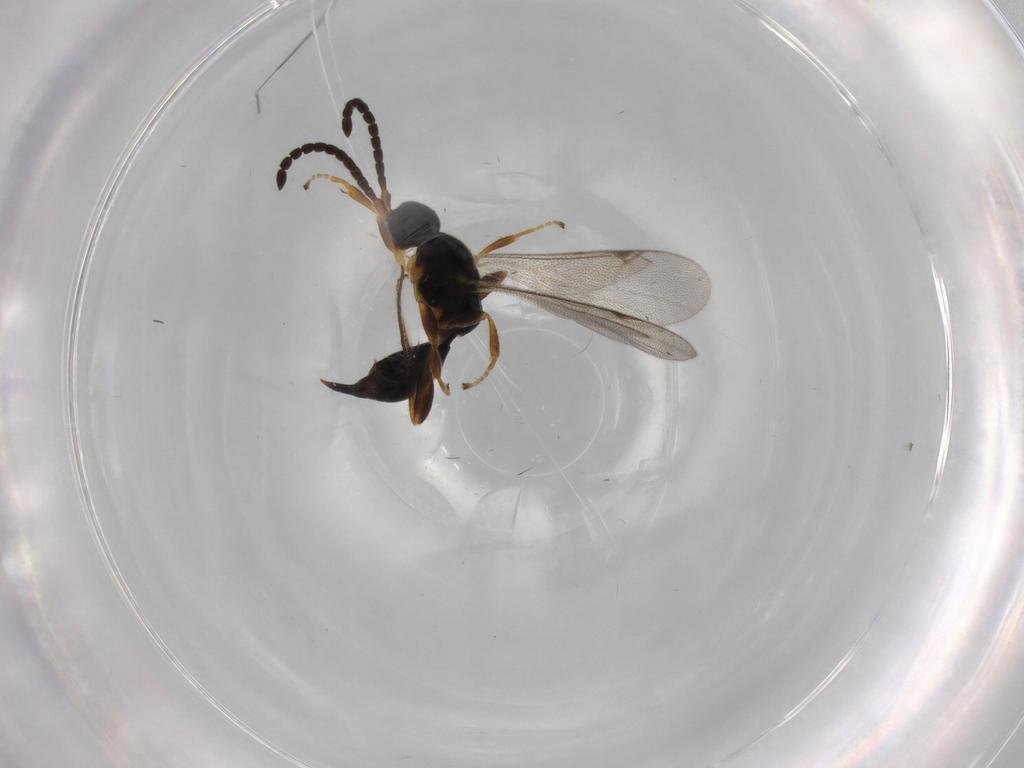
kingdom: Animalia
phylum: Arthropoda
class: Insecta
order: Hymenoptera
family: Proctotrupidae
